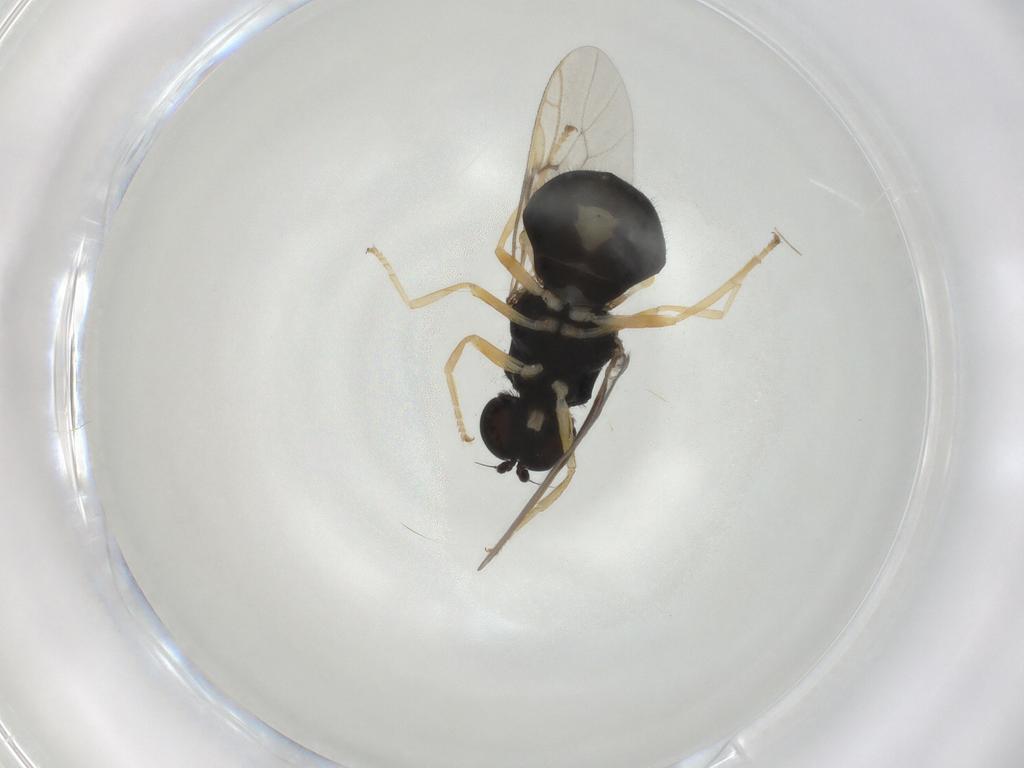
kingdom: Animalia
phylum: Arthropoda
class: Insecta
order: Diptera
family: Stratiomyidae
